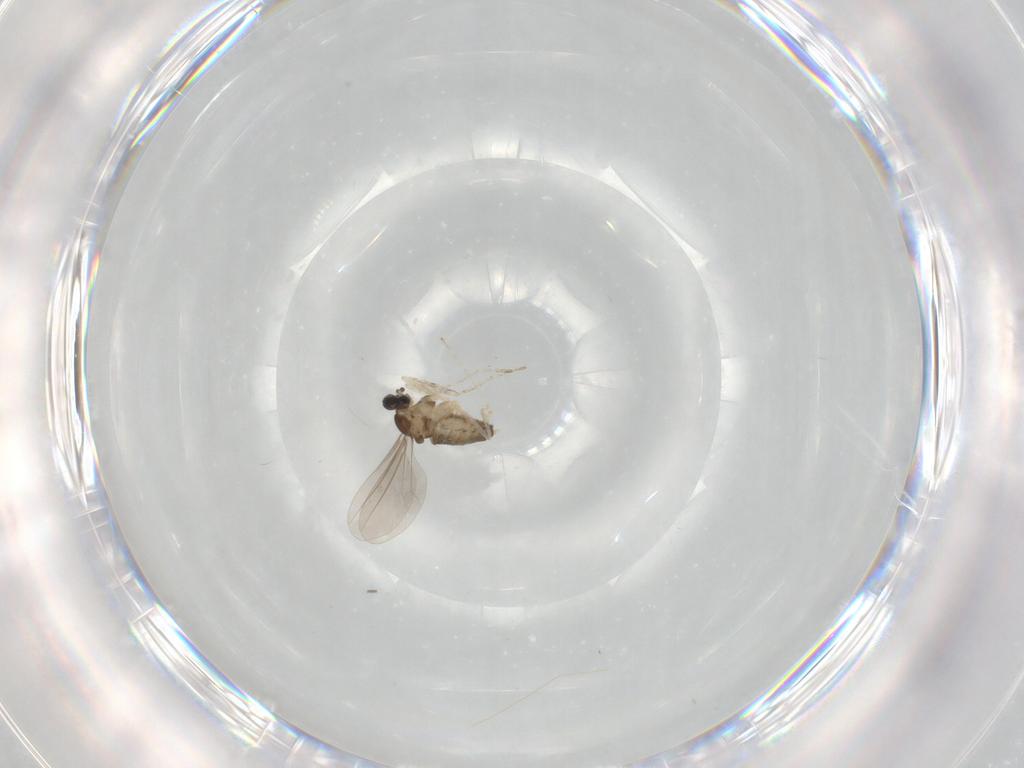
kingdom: Animalia
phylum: Arthropoda
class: Insecta
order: Diptera
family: Cecidomyiidae
